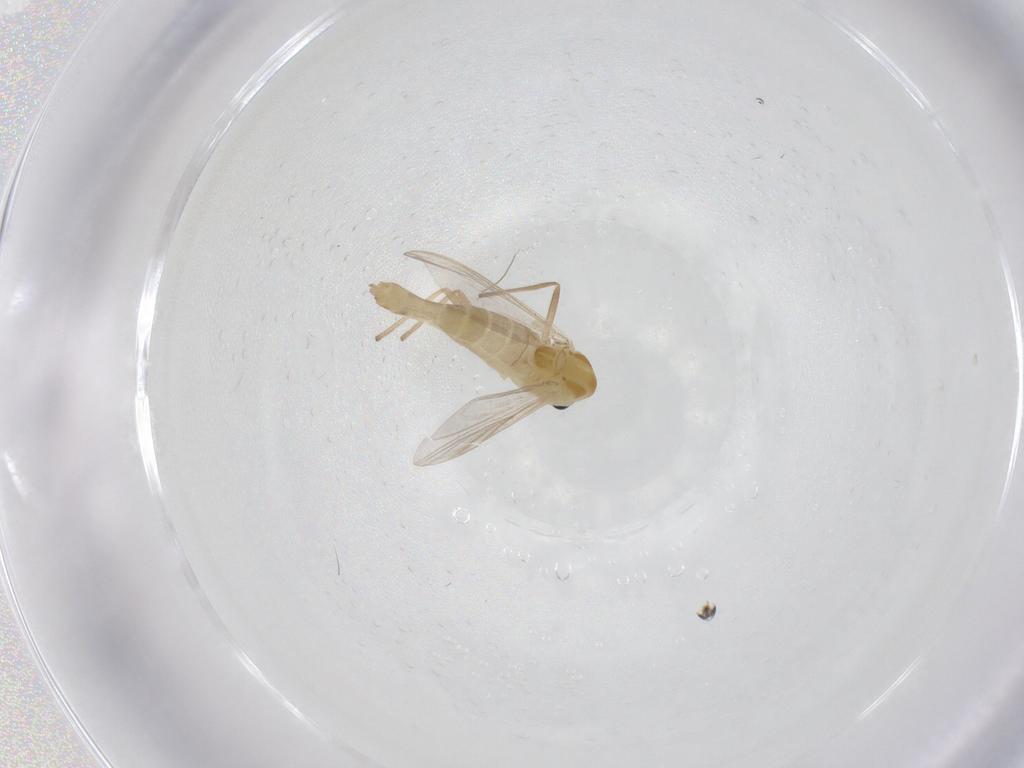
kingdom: Animalia
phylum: Arthropoda
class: Insecta
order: Diptera
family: Chironomidae
